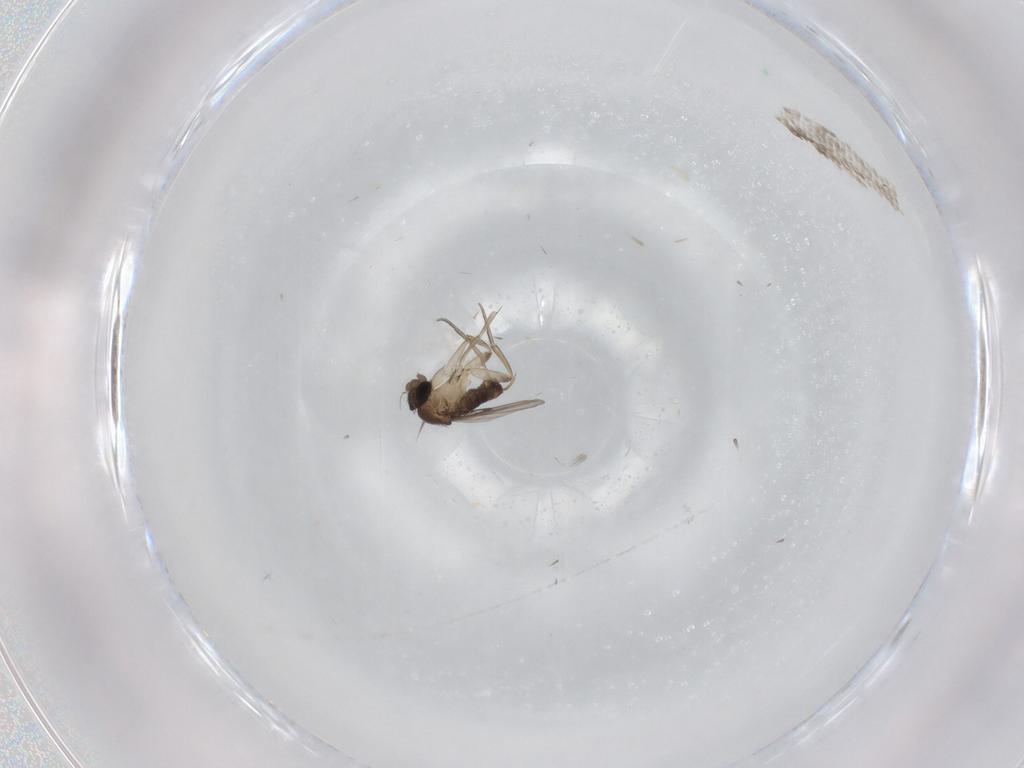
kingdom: Animalia
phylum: Arthropoda
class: Insecta
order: Diptera
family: Phoridae
